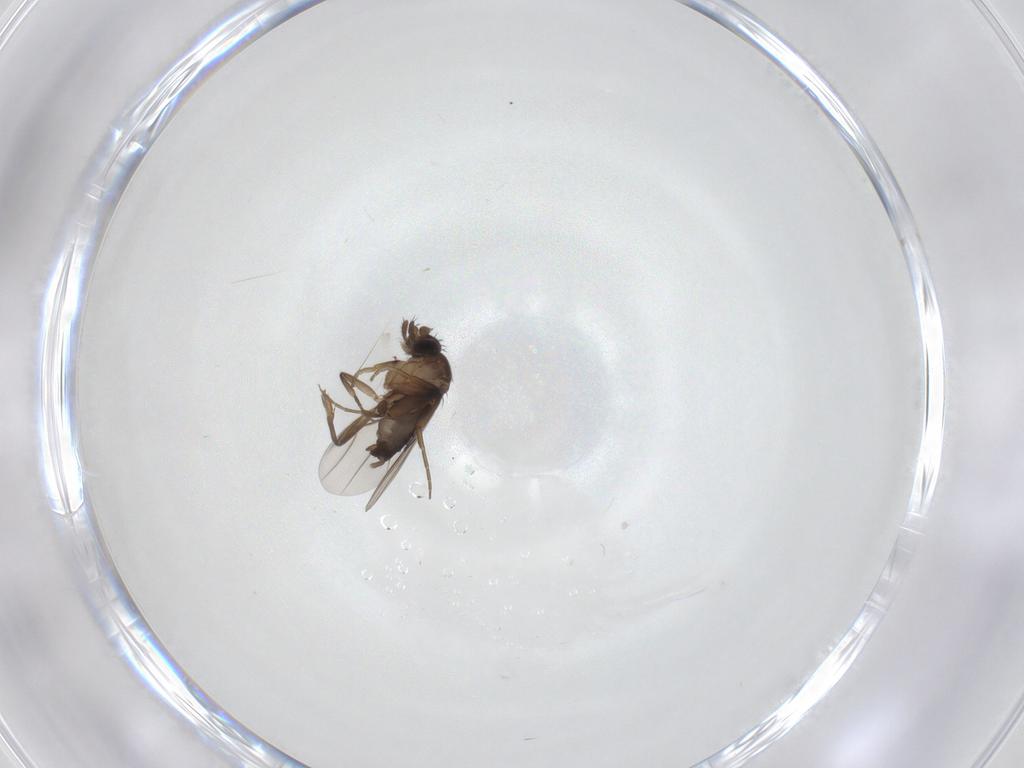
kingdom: Animalia
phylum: Arthropoda
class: Insecta
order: Diptera
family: Phoridae
